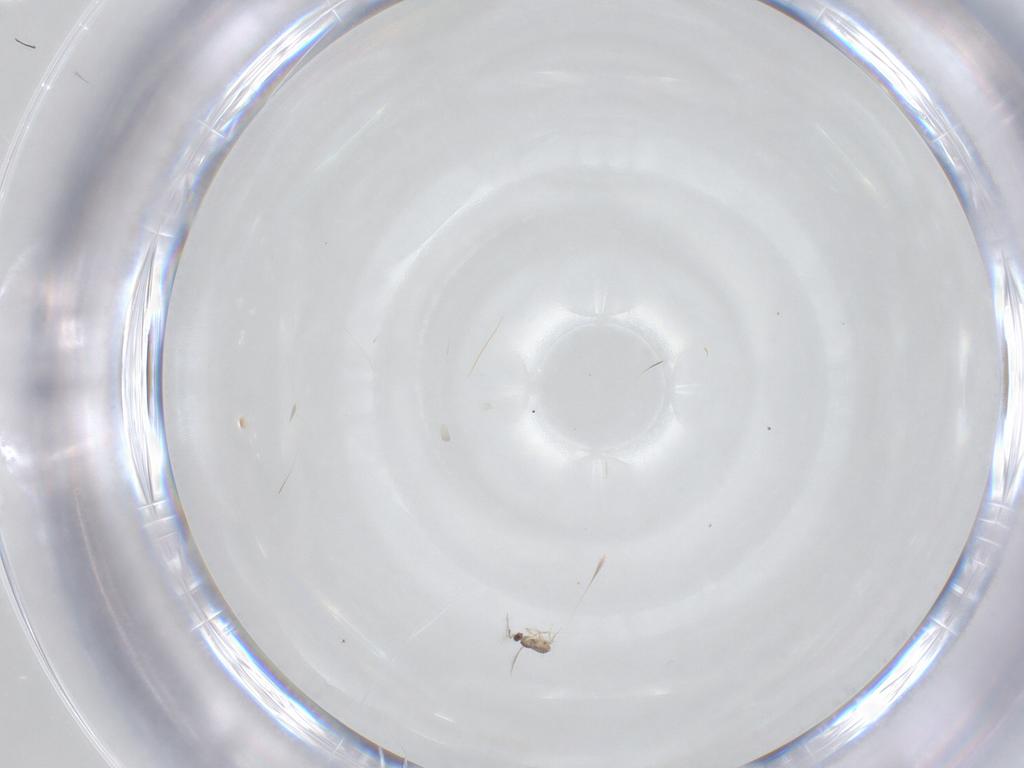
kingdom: Animalia
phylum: Arthropoda
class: Insecta
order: Hymenoptera
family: Mymaridae
